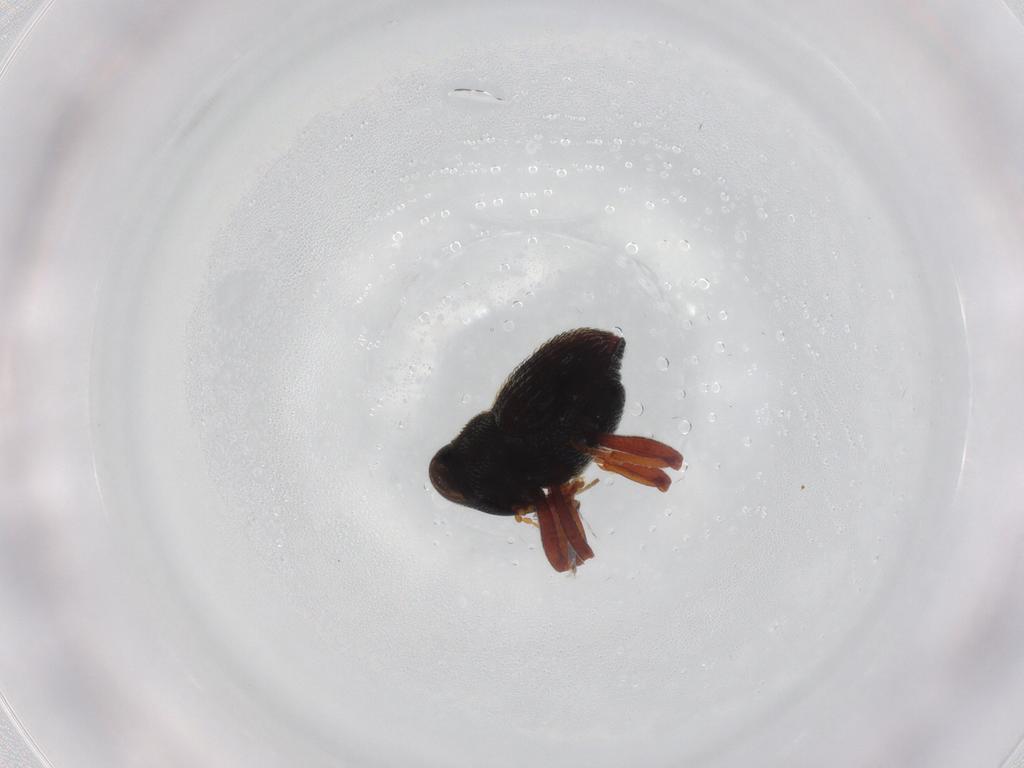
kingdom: Animalia
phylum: Arthropoda
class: Insecta
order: Coleoptera
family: Curculionidae
